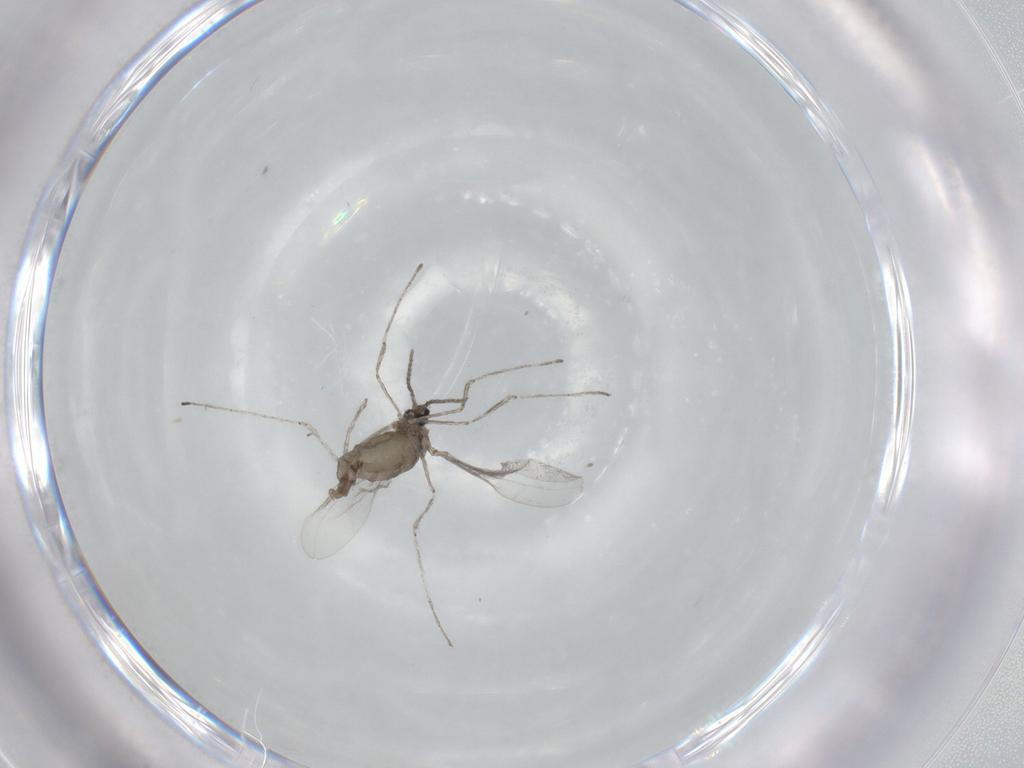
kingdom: Animalia
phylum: Arthropoda
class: Insecta
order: Diptera
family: Cecidomyiidae
